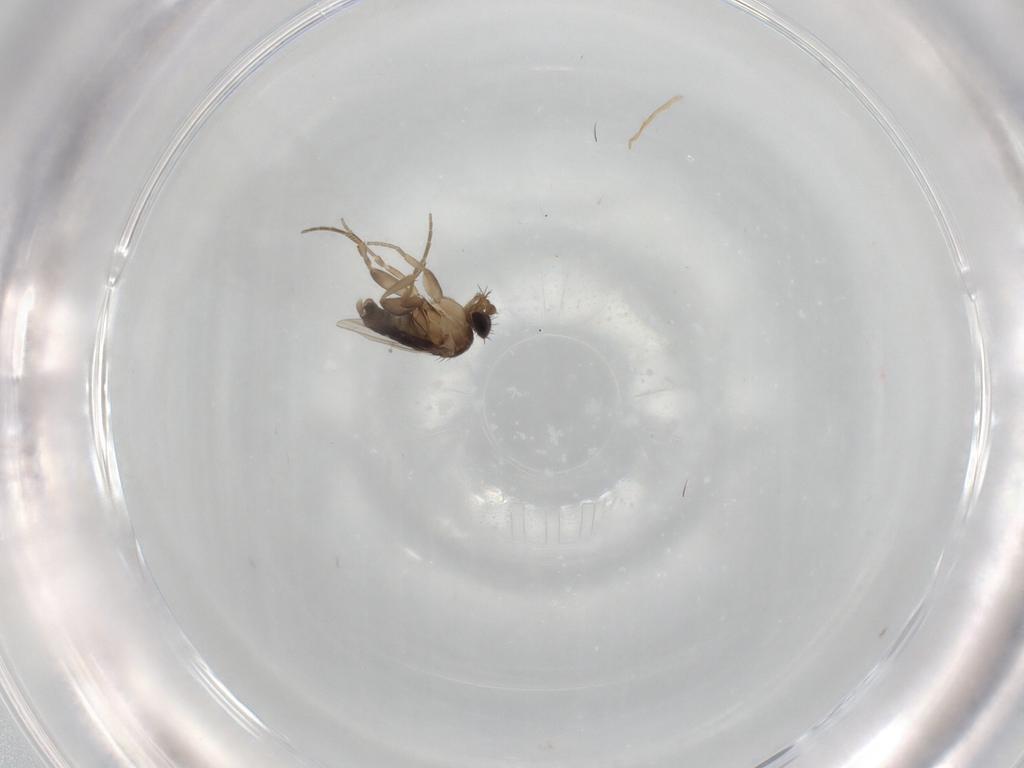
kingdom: Animalia
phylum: Arthropoda
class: Insecta
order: Diptera
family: Phoridae
